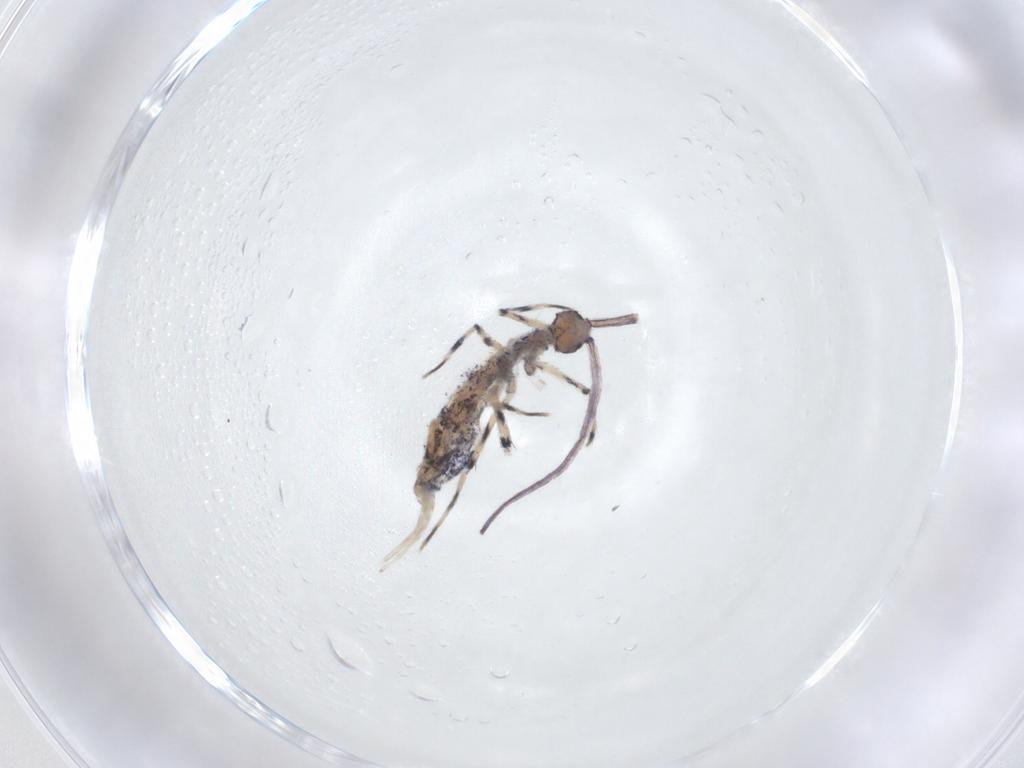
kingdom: Animalia
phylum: Arthropoda
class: Collembola
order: Entomobryomorpha
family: Entomobryidae
